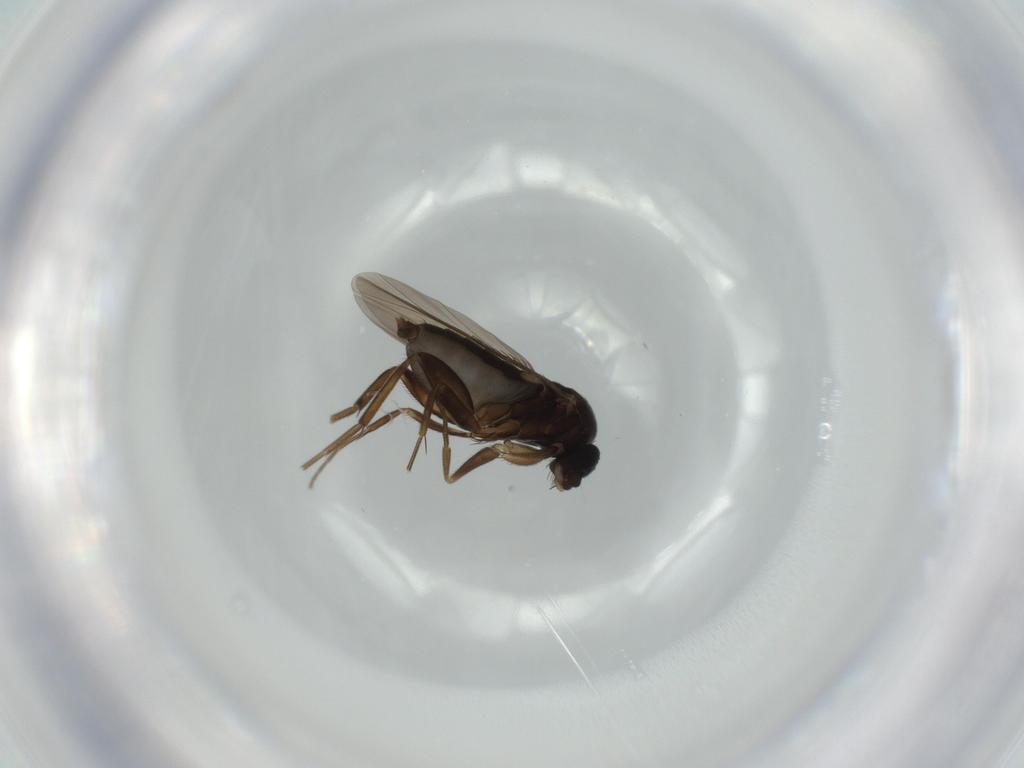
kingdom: Animalia
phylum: Arthropoda
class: Insecta
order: Diptera
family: Phoridae
